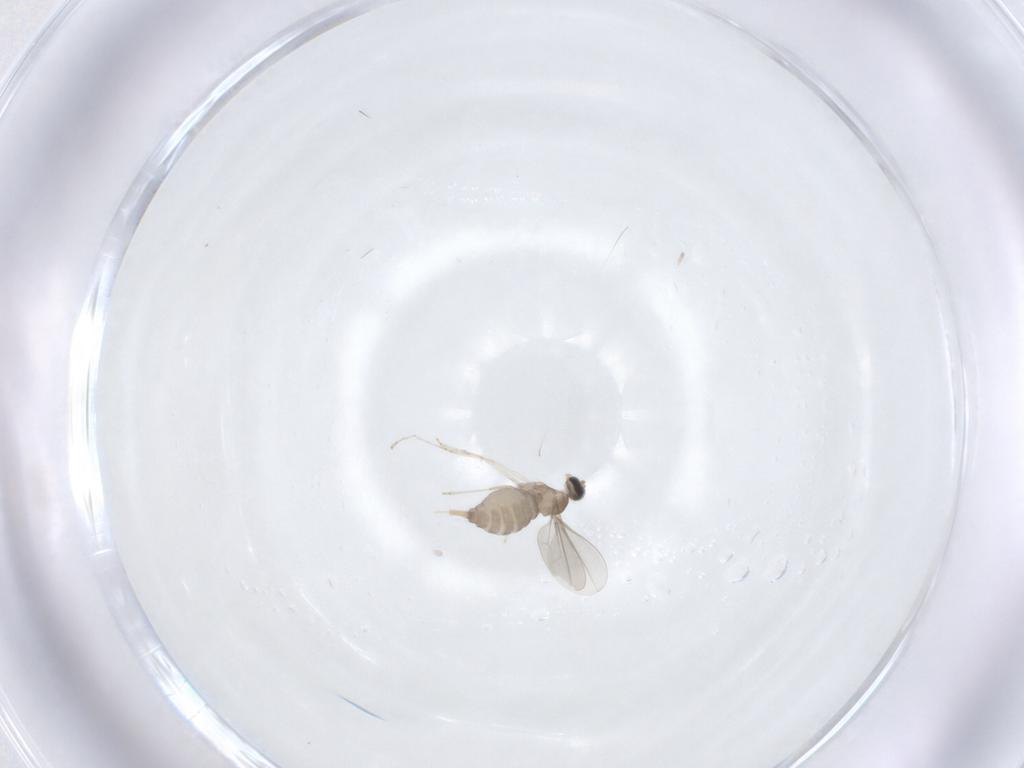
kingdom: Animalia
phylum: Arthropoda
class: Insecta
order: Diptera
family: Cecidomyiidae
